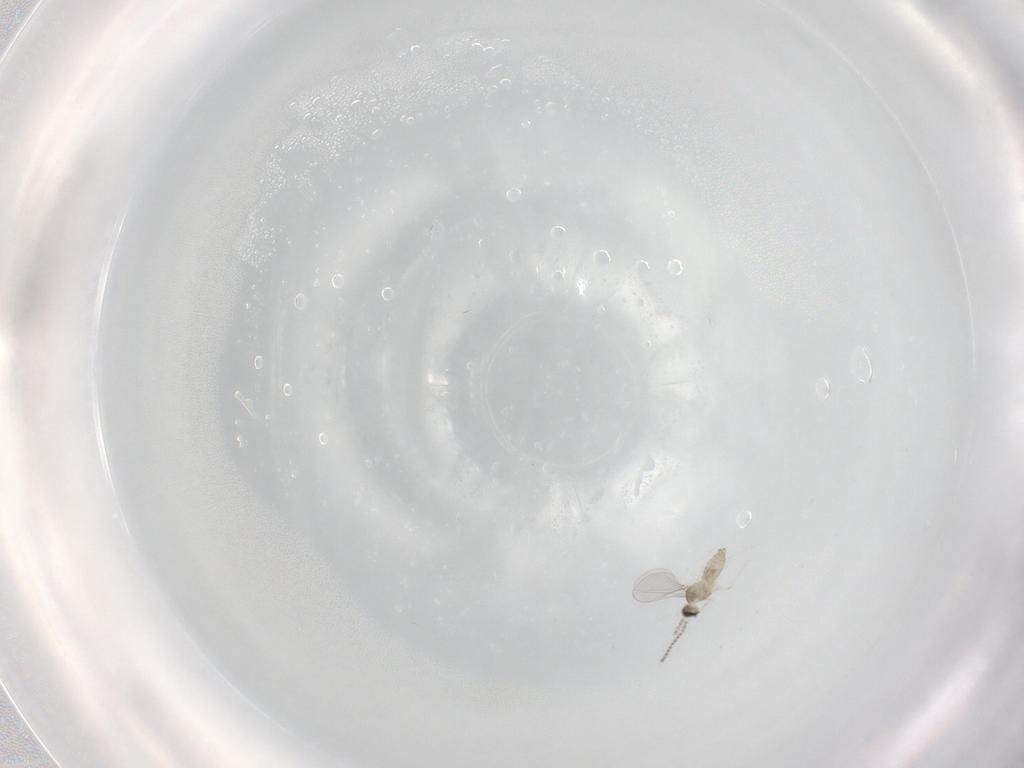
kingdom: Animalia
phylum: Arthropoda
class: Insecta
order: Diptera
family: Cecidomyiidae
